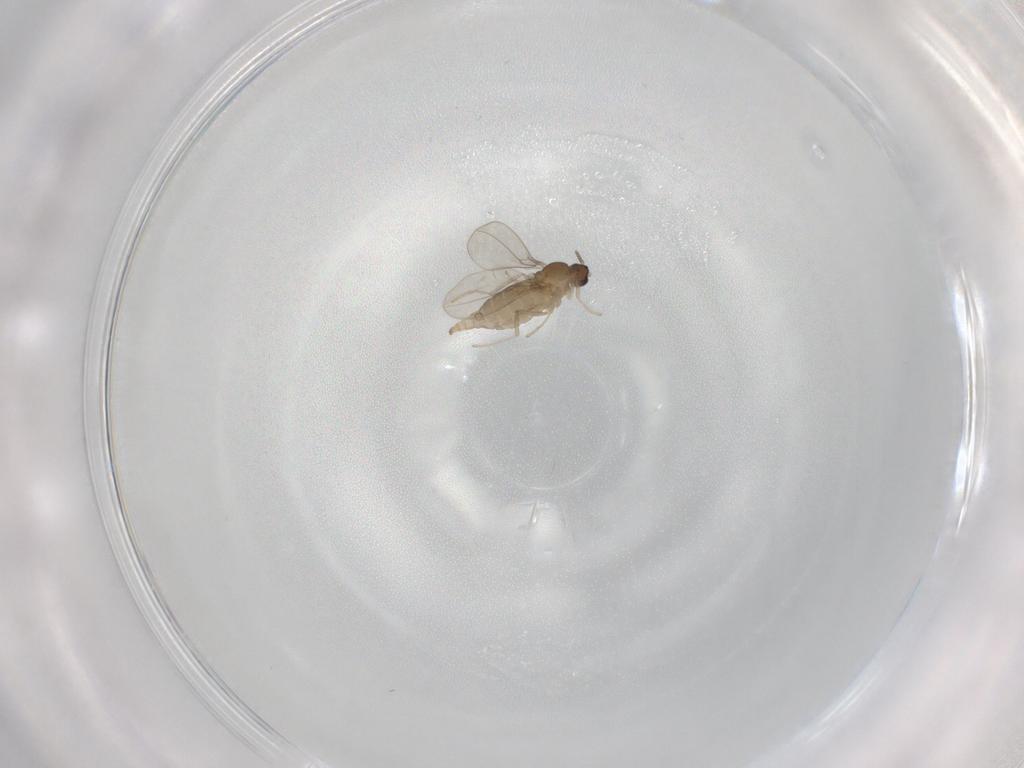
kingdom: Animalia
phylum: Arthropoda
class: Insecta
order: Diptera
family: Cecidomyiidae
